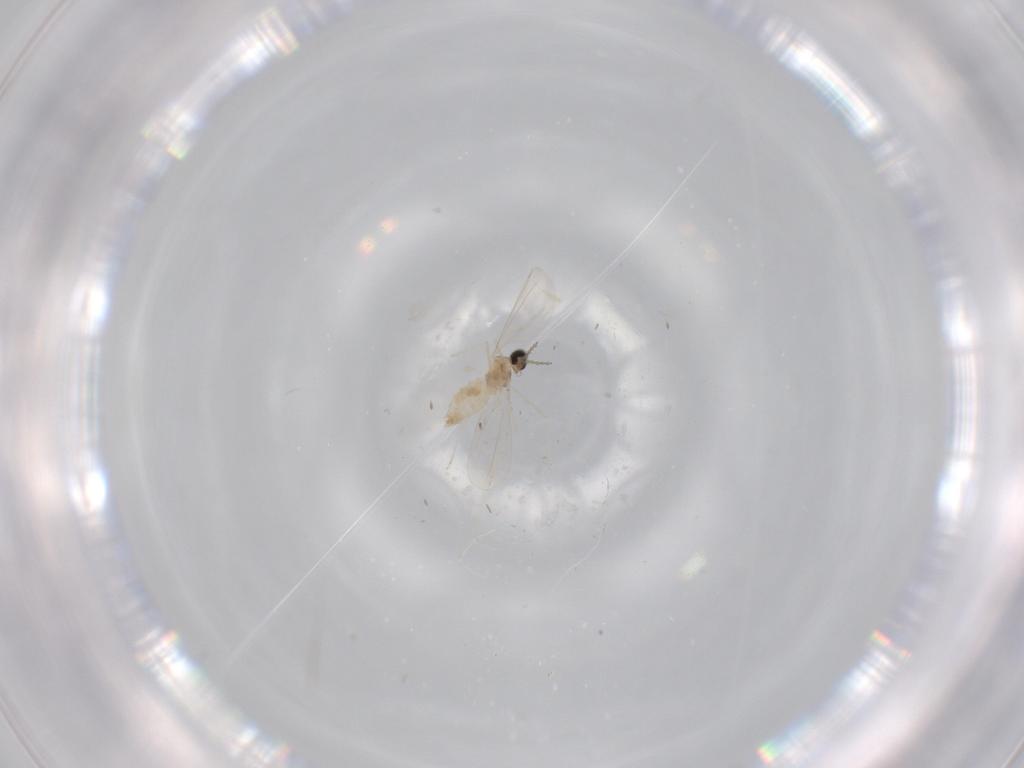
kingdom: Animalia
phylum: Arthropoda
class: Insecta
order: Diptera
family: Cecidomyiidae
